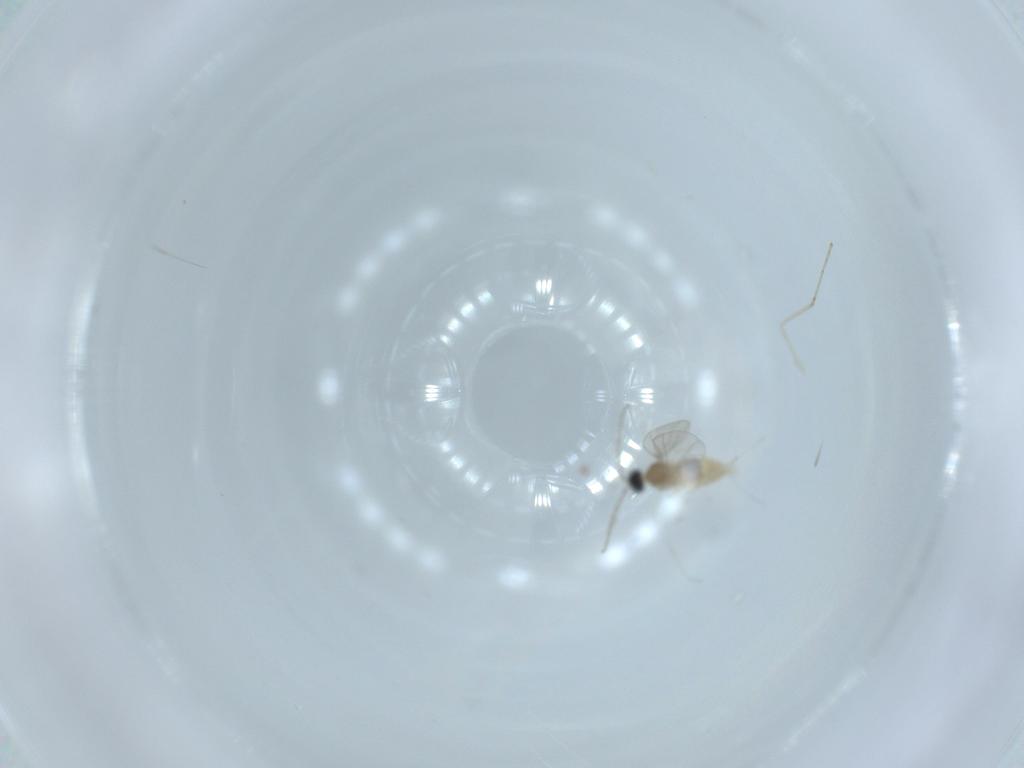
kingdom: Animalia
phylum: Arthropoda
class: Insecta
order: Diptera
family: Cecidomyiidae
